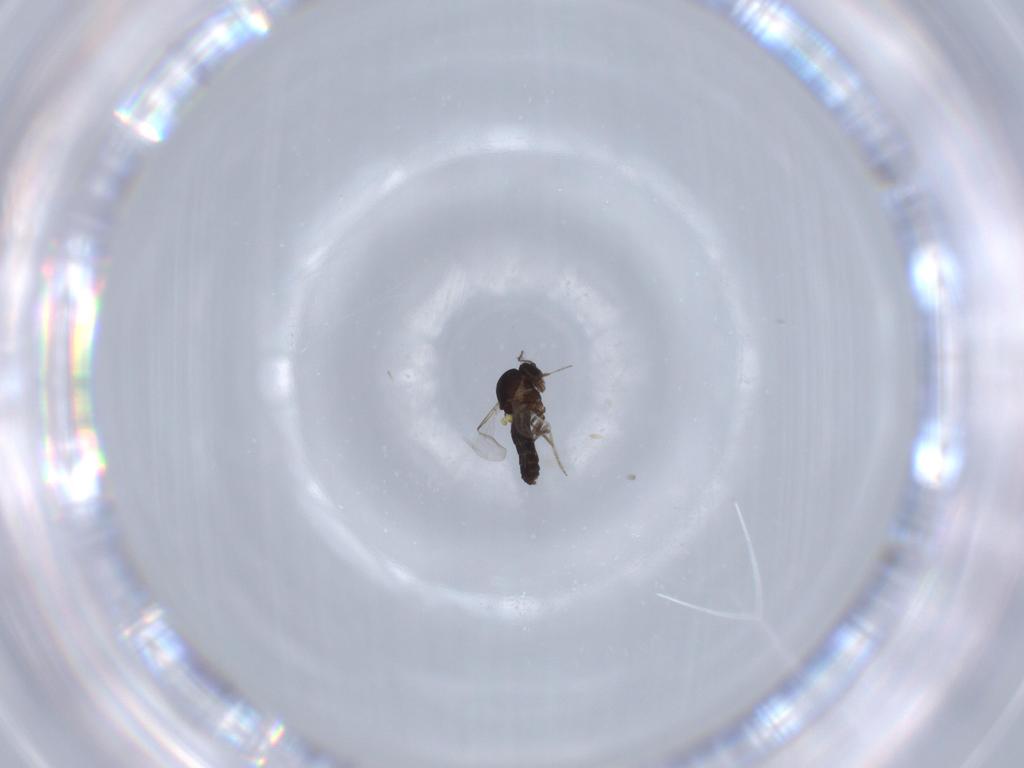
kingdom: Animalia
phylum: Arthropoda
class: Insecta
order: Diptera
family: Ceratopogonidae
